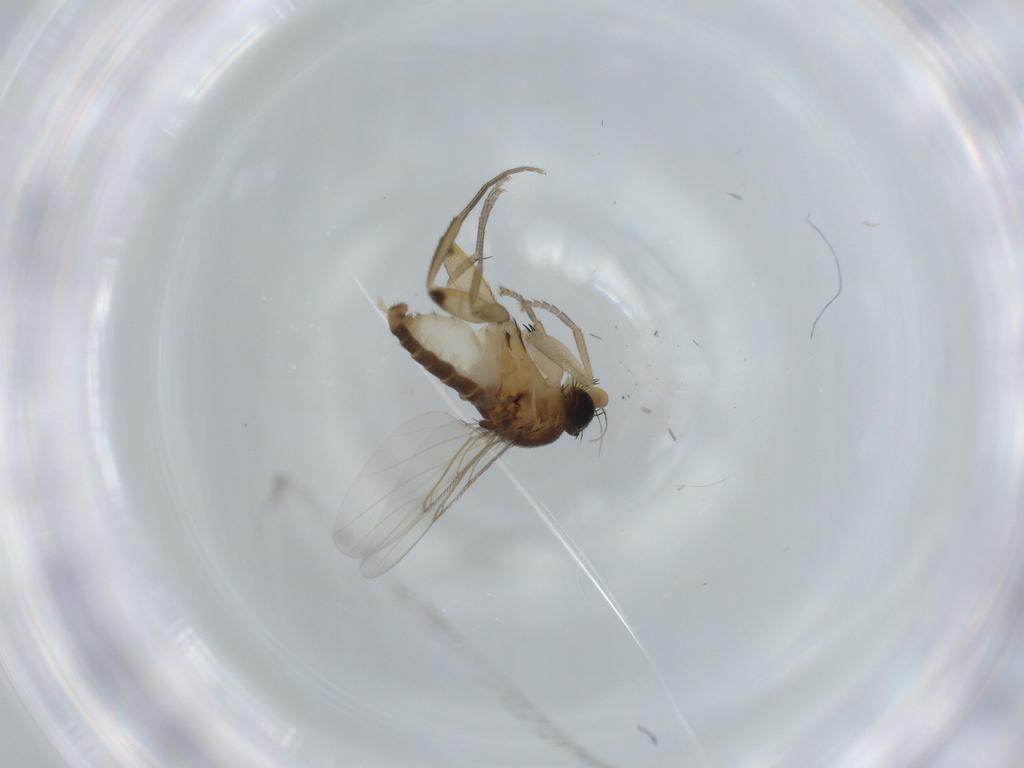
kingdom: Animalia
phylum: Arthropoda
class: Insecta
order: Diptera
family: Phoridae
